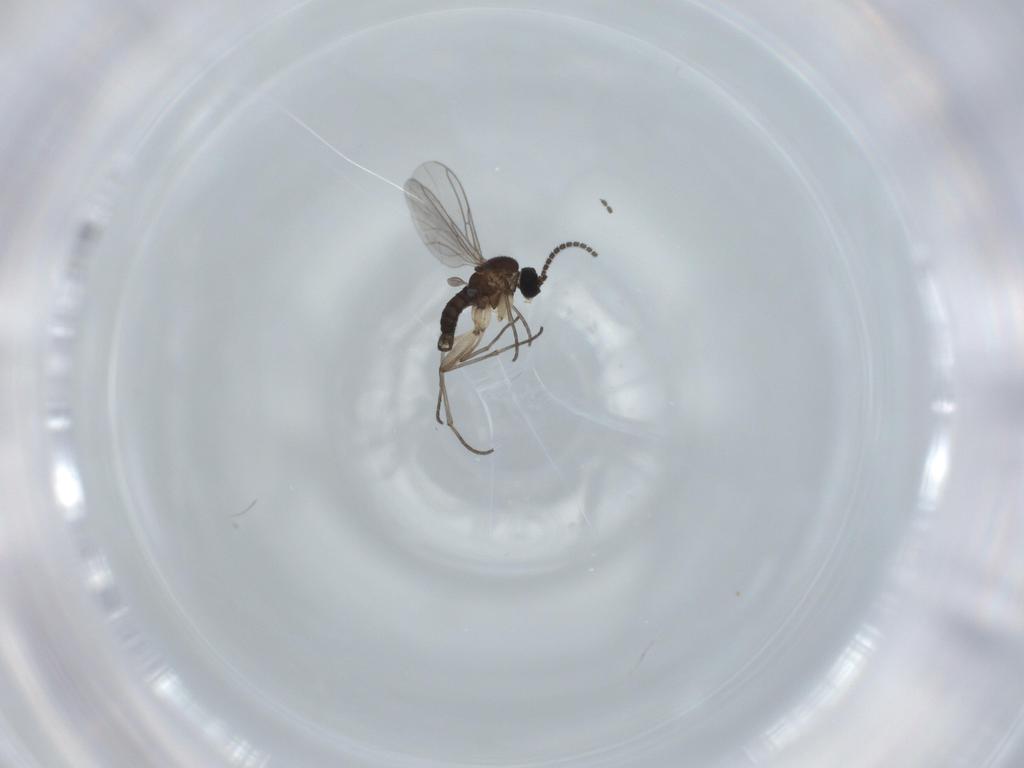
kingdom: Animalia
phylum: Arthropoda
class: Insecta
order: Diptera
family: Sciaridae
